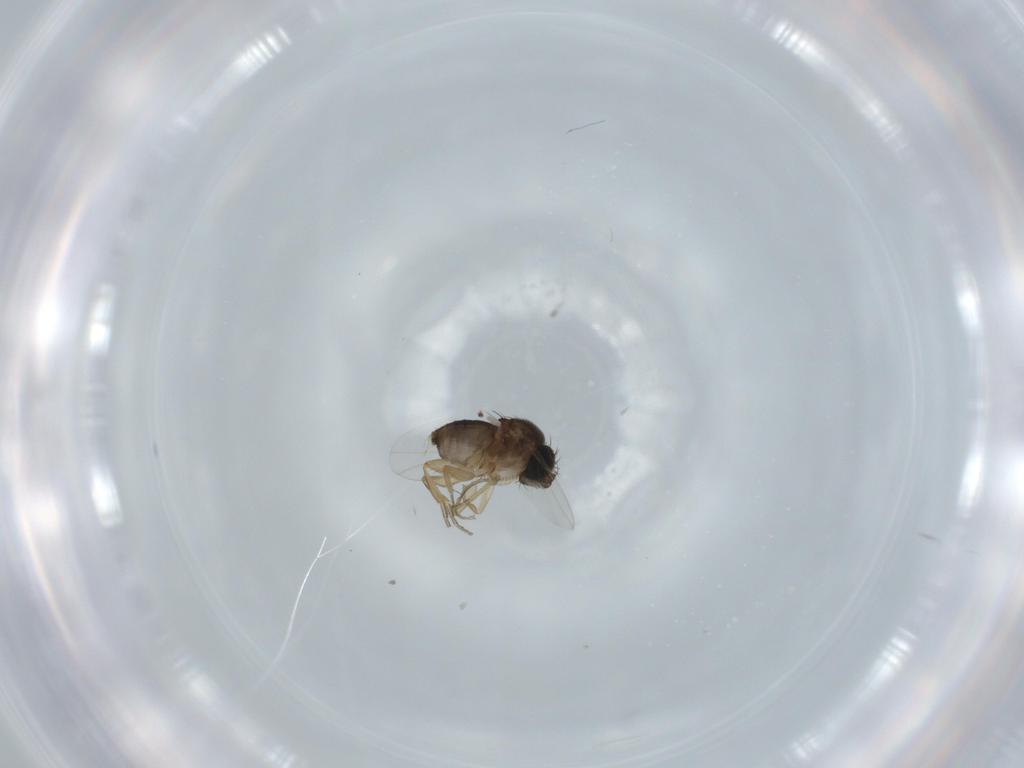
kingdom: Animalia
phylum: Arthropoda
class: Insecta
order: Diptera
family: Phoridae
